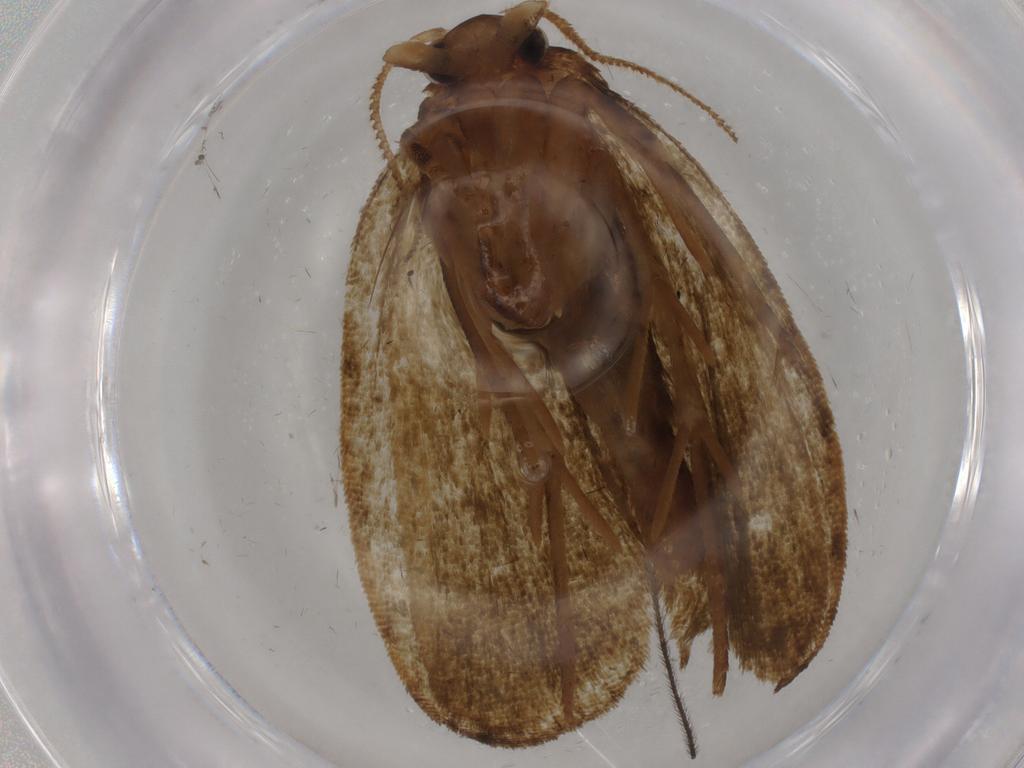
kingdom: Animalia
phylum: Arthropoda
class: Insecta
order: Lepidoptera
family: Geometridae
